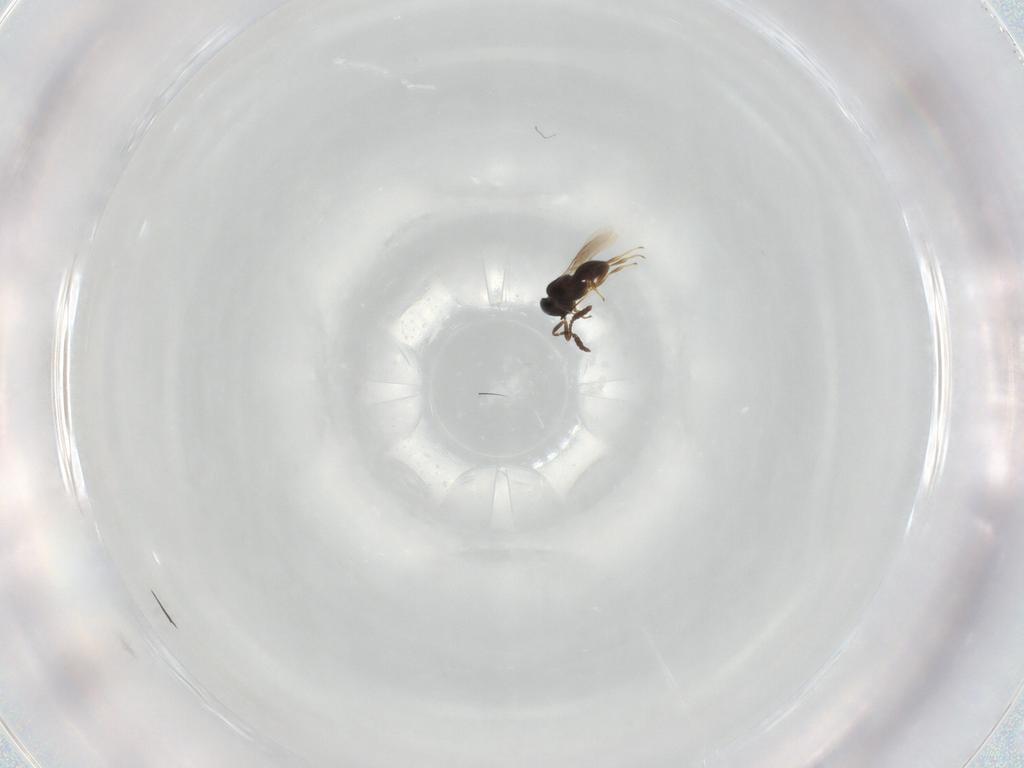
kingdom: Animalia
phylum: Arthropoda
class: Insecta
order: Hymenoptera
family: Scelionidae
